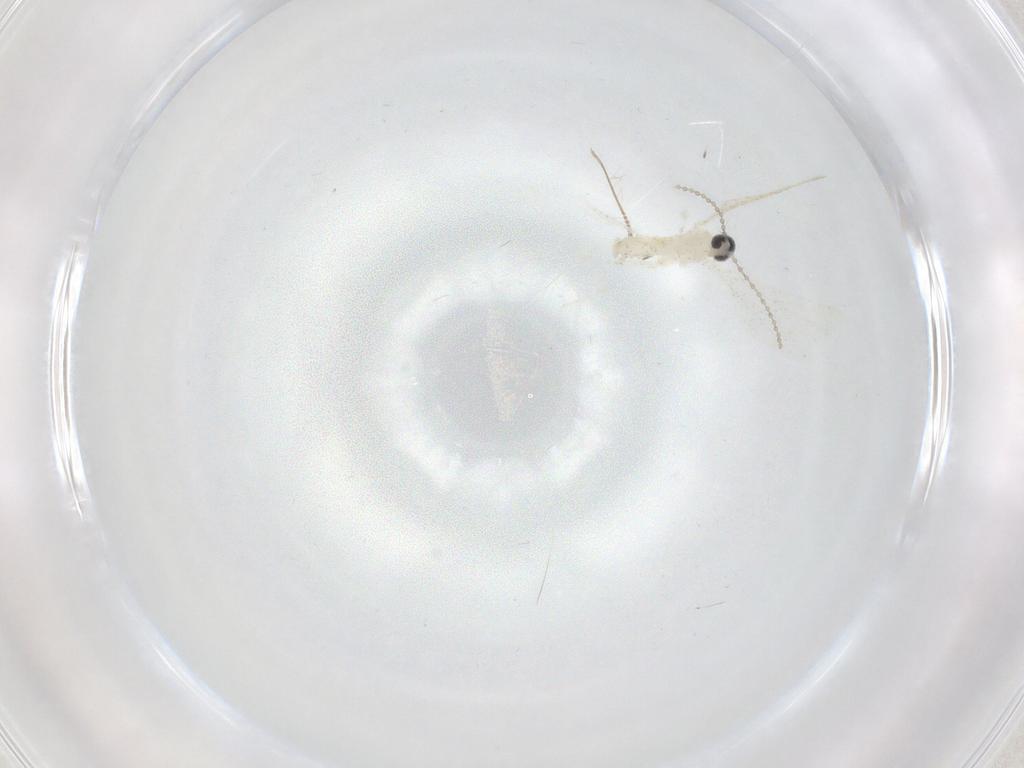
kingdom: Animalia
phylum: Arthropoda
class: Insecta
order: Diptera
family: Cecidomyiidae
